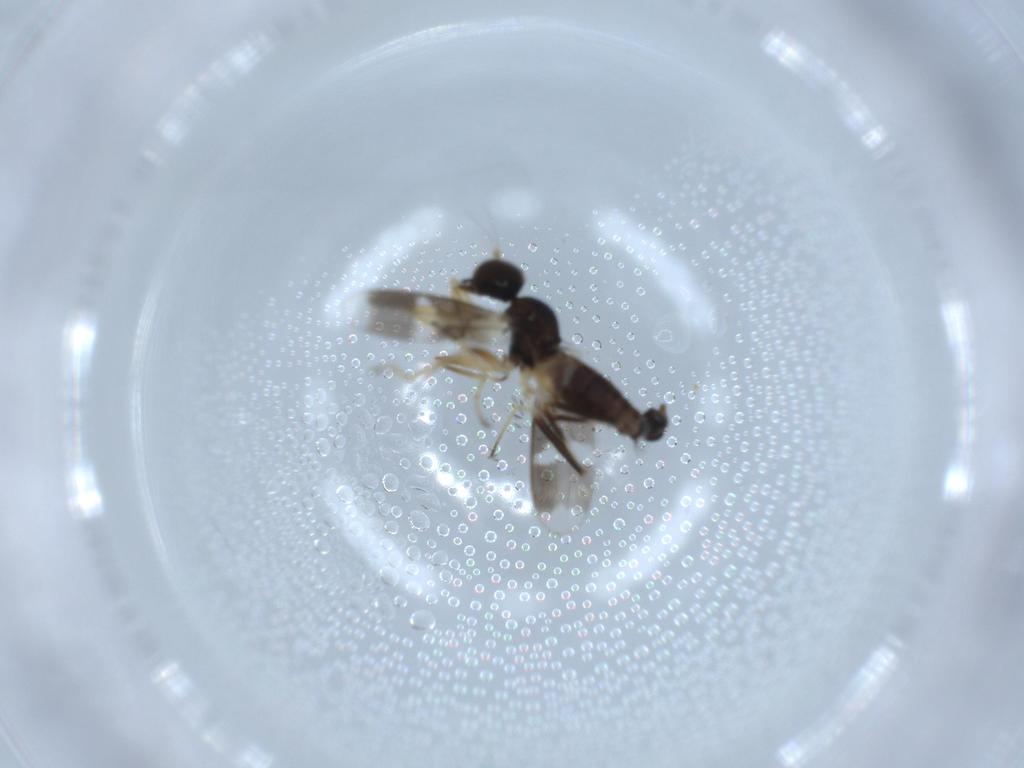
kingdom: Animalia
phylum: Arthropoda
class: Insecta
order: Diptera
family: Hybotidae
